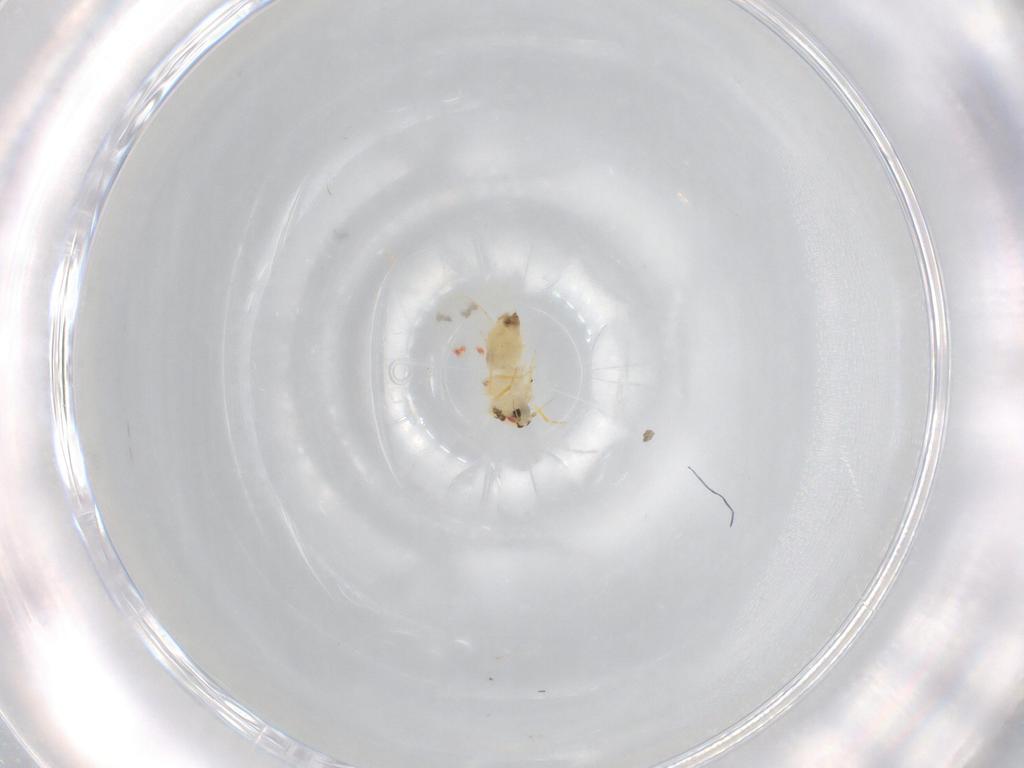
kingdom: Animalia
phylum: Arthropoda
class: Insecta
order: Hemiptera
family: Aleyrodidae
